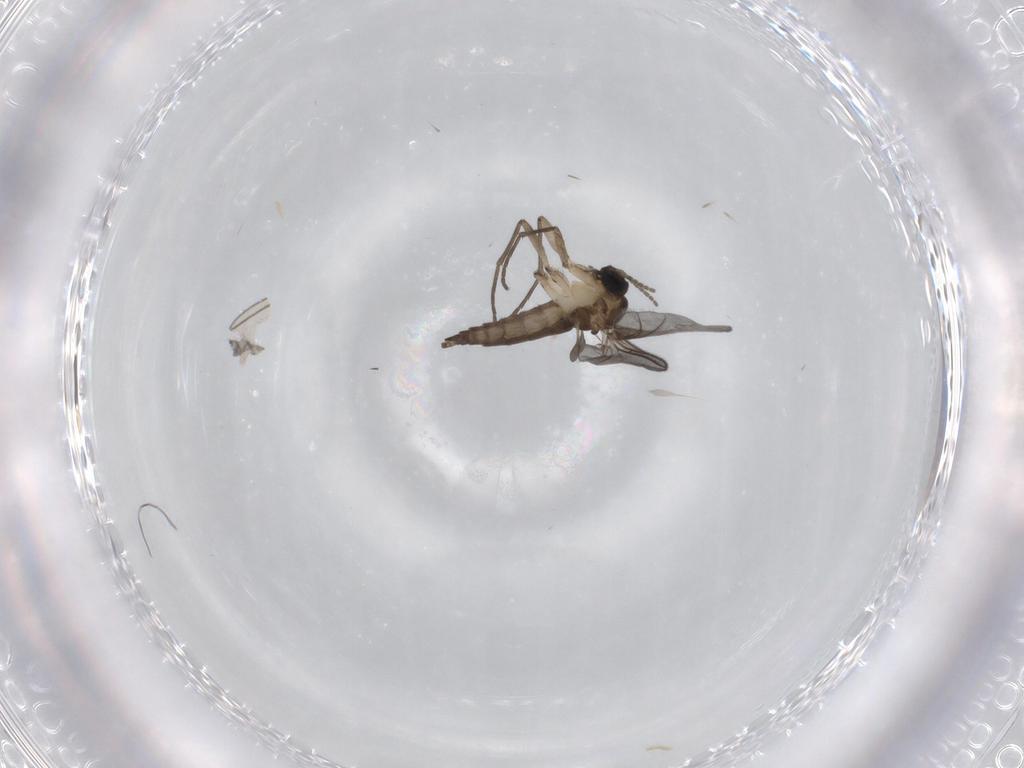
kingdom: Animalia
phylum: Arthropoda
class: Insecta
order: Diptera
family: Sciaridae
